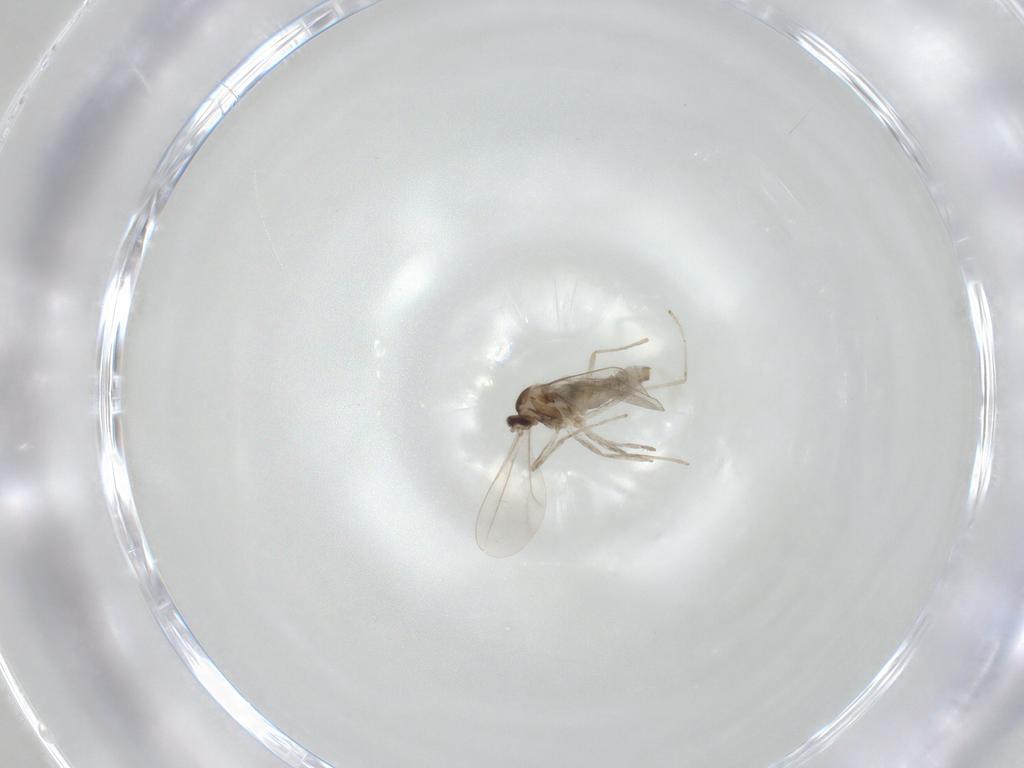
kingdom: Animalia
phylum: Arthropoda
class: Insecta
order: Diptera
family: Cecidomyiidae
